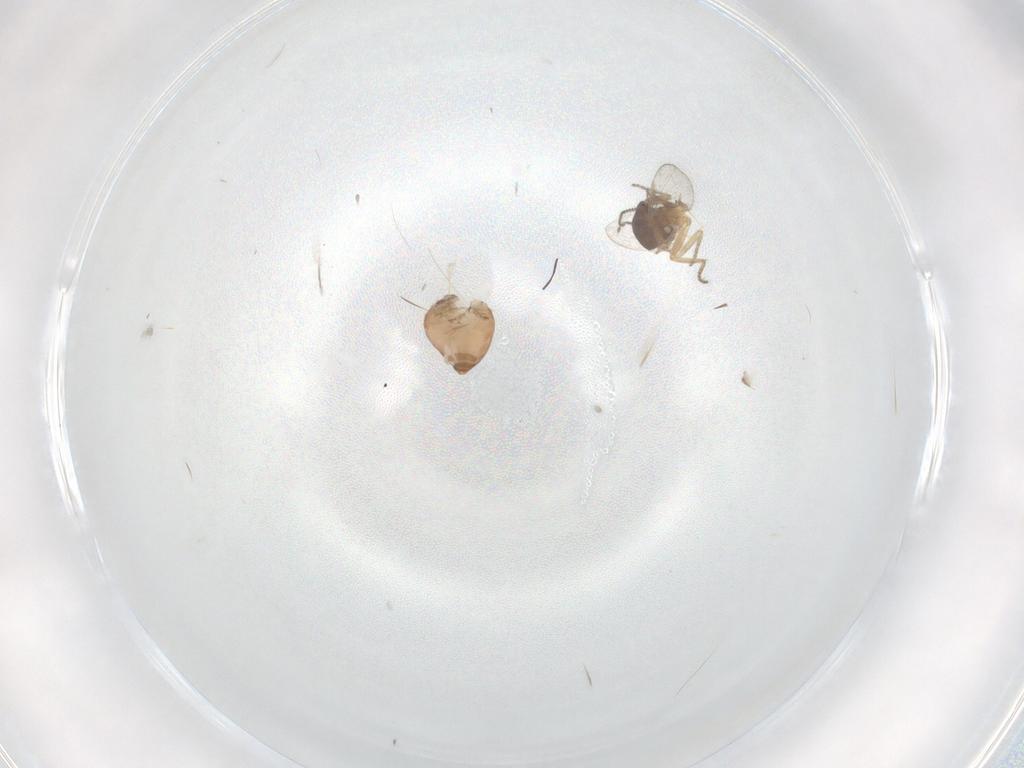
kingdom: Animalia
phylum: Arthropoda
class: Insecta
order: Diptera
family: Ceratopogonidae
